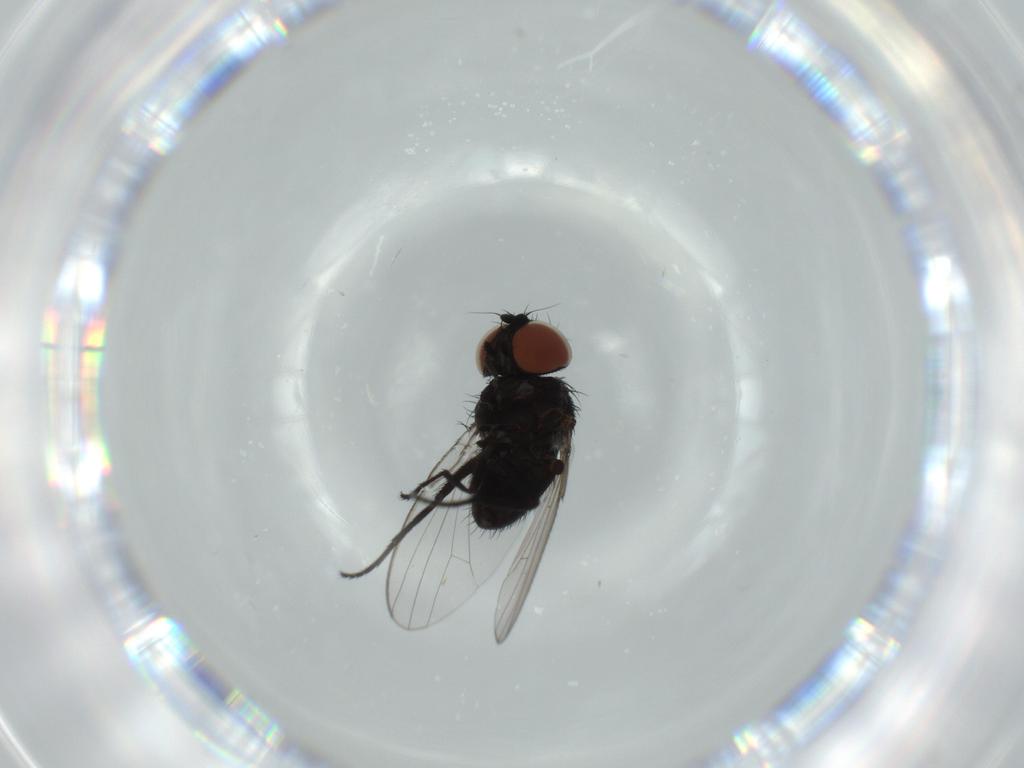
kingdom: Animalia
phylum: Arthropoda
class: Insecta
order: Diptera
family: Milichiidae
